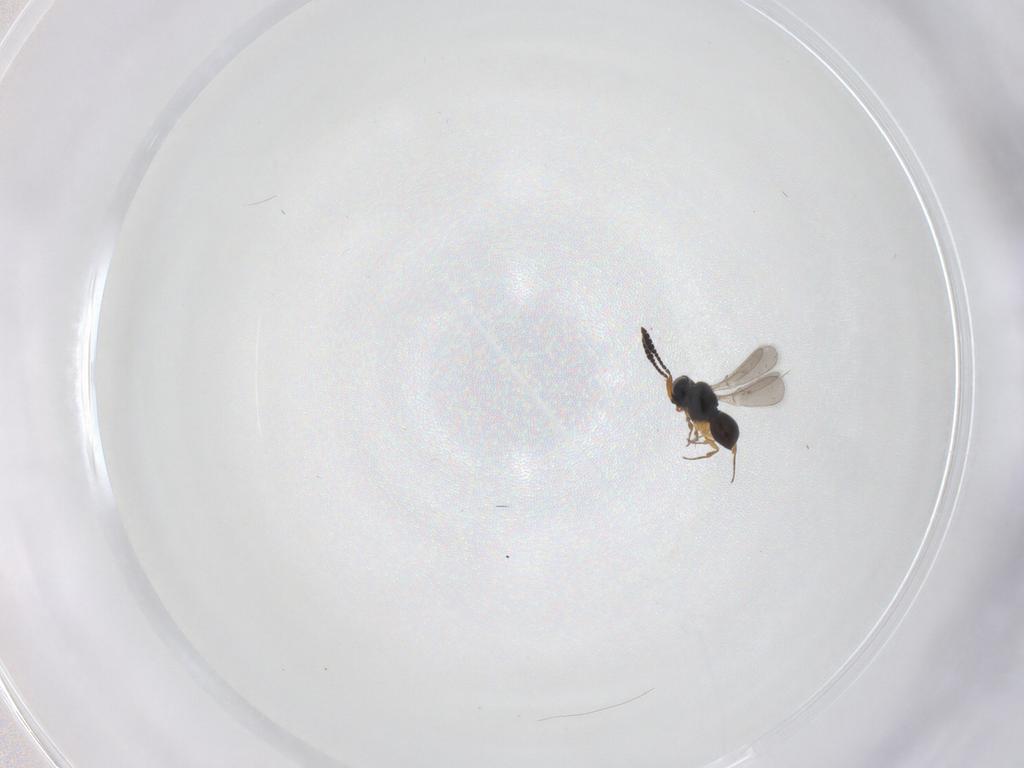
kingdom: Animalia
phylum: Arthropoda
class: Insecta
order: Hymenoptera
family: Scelionidae
